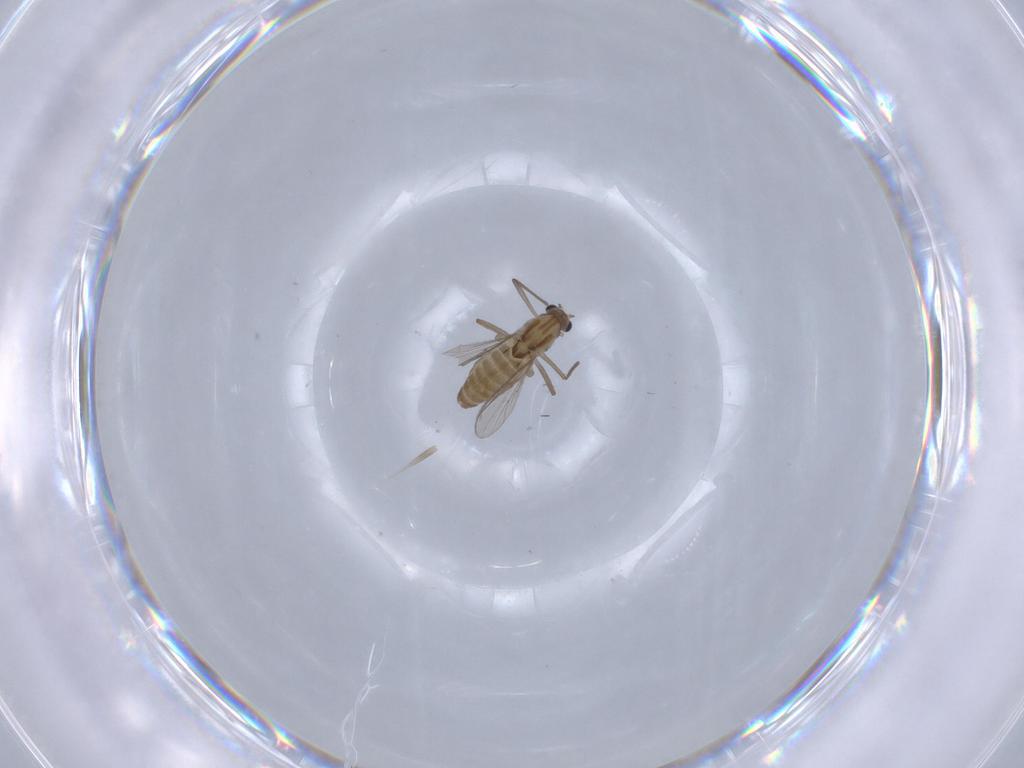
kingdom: Animalia
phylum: Arthropoda
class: Insecta
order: Diptera
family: Chironomidae
